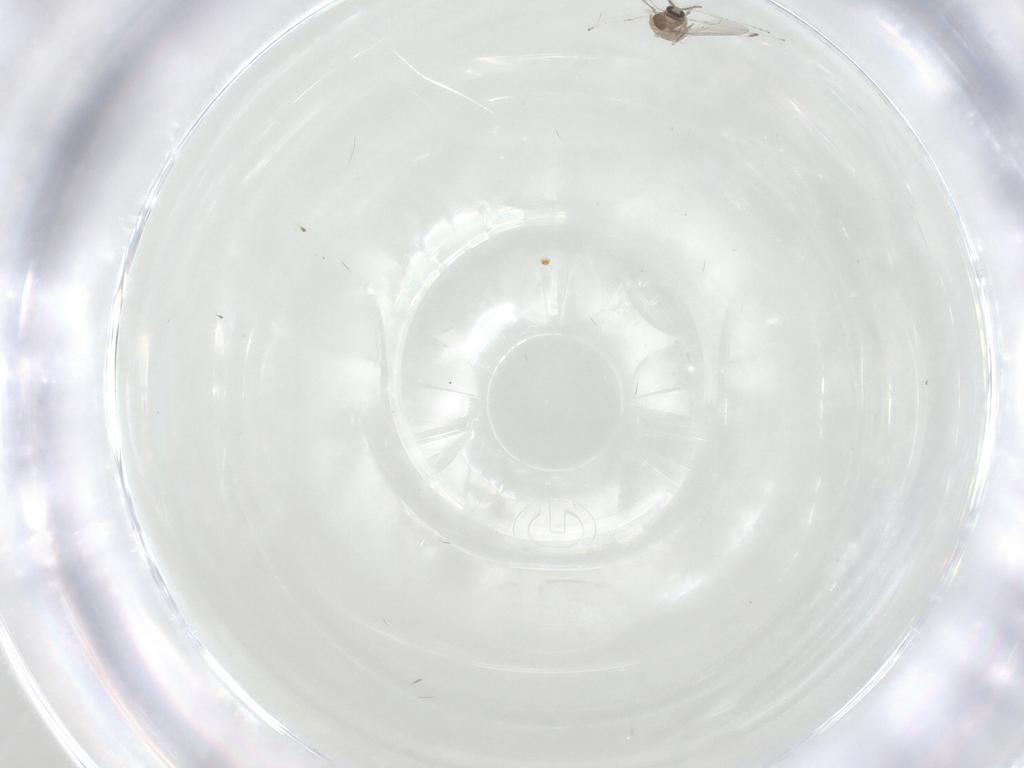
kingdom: Animalia
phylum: Arthropoda
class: Insecta
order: Diptera
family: Cecidomyiidae
